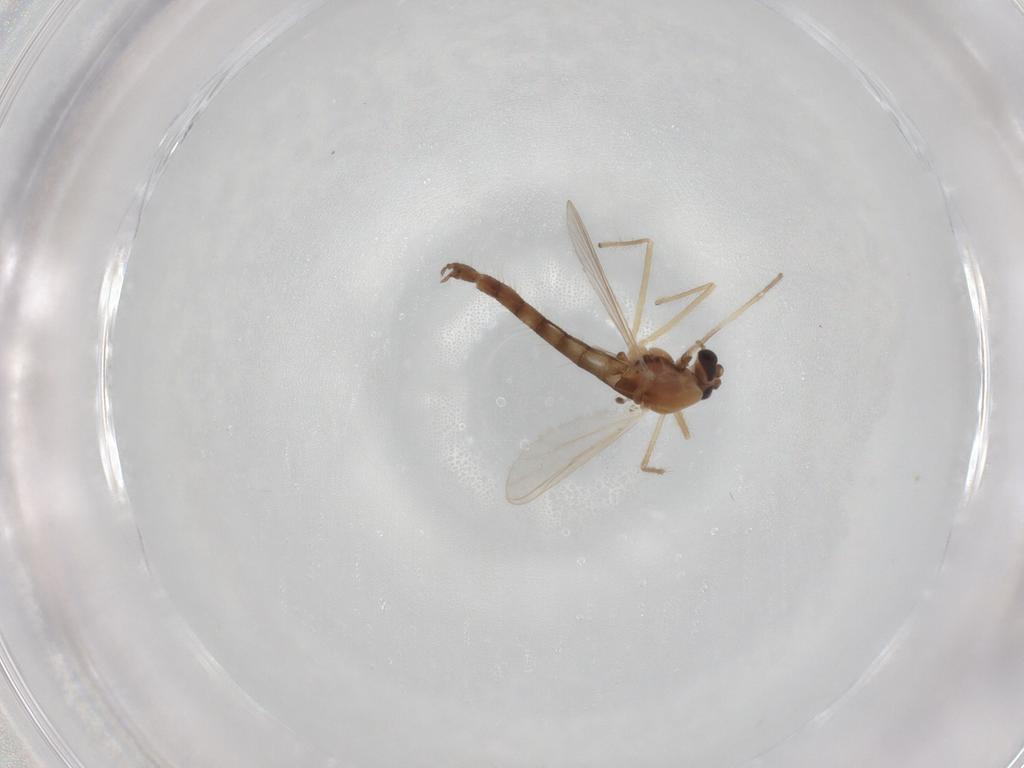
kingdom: Animalia
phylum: Arthropoda
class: Insecta
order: Diptera
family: Chironomidae
